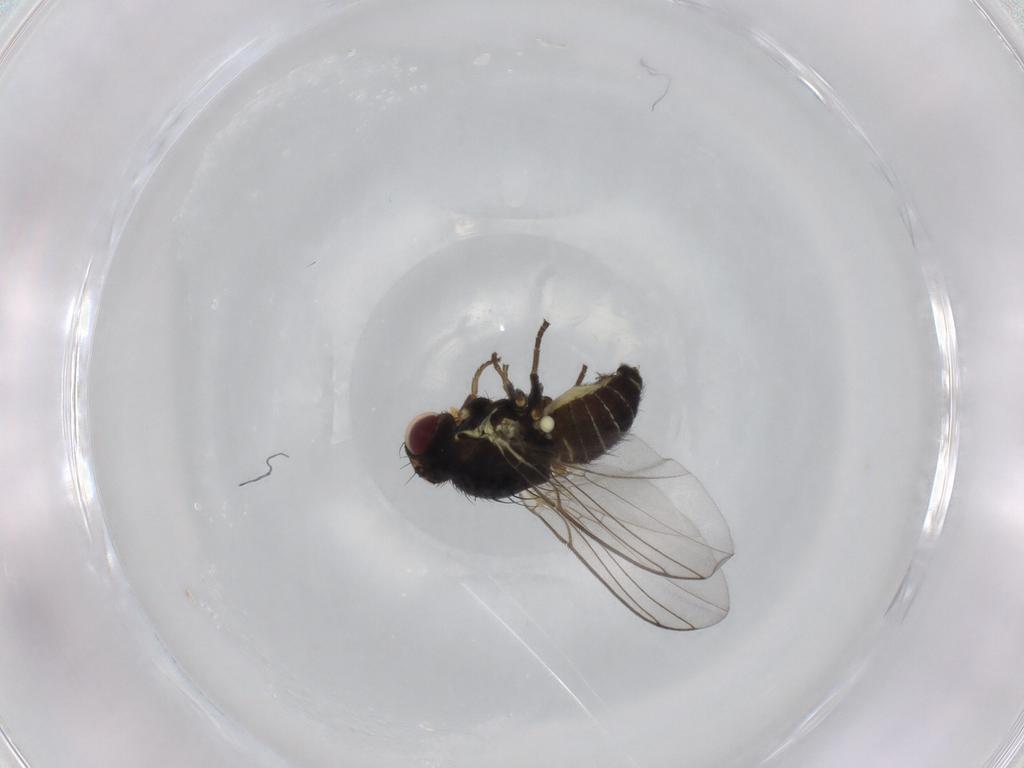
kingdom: Animalia
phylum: Arthropoda
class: Insecta
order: Diptera
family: Agromyzidae
